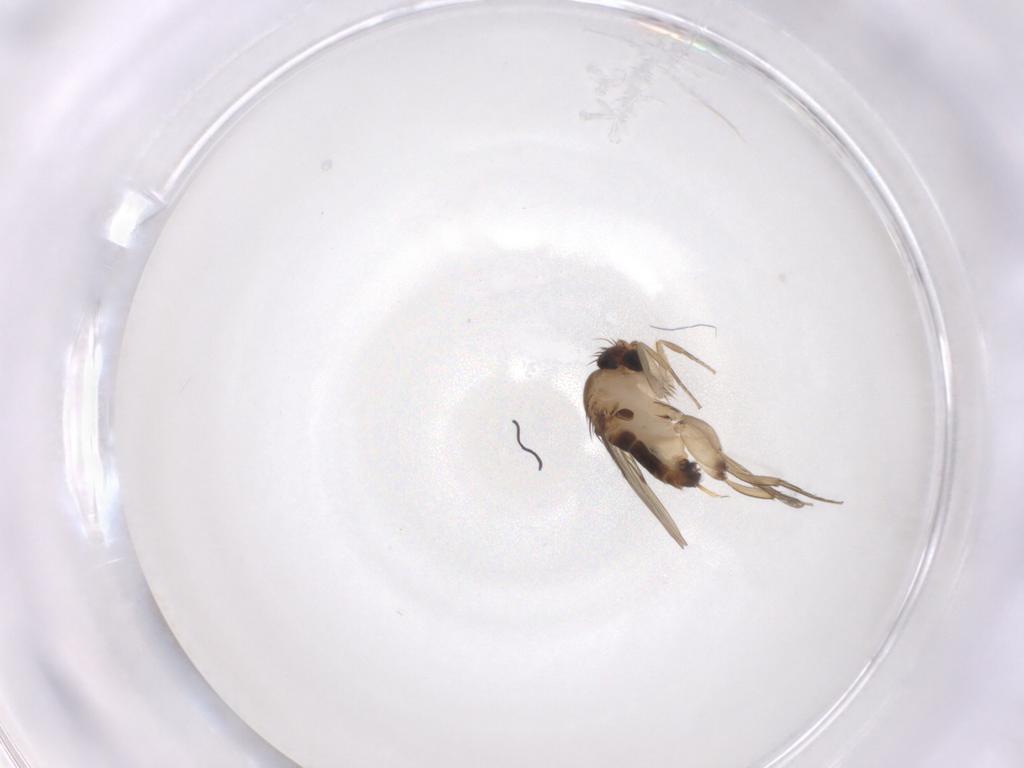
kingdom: Animalia
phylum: Arthropoda
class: Insecta
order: Diptera
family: Phoridae
